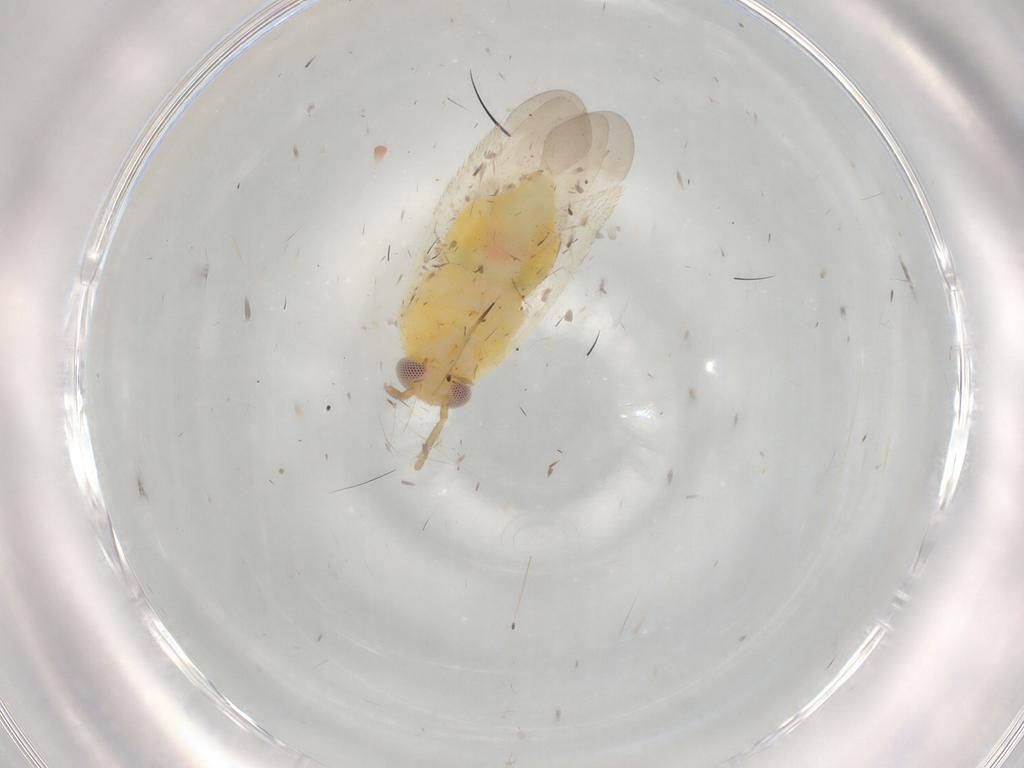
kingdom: Animalia
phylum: Arthropoda
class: Insecta
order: Hemiptera
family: Miridae
